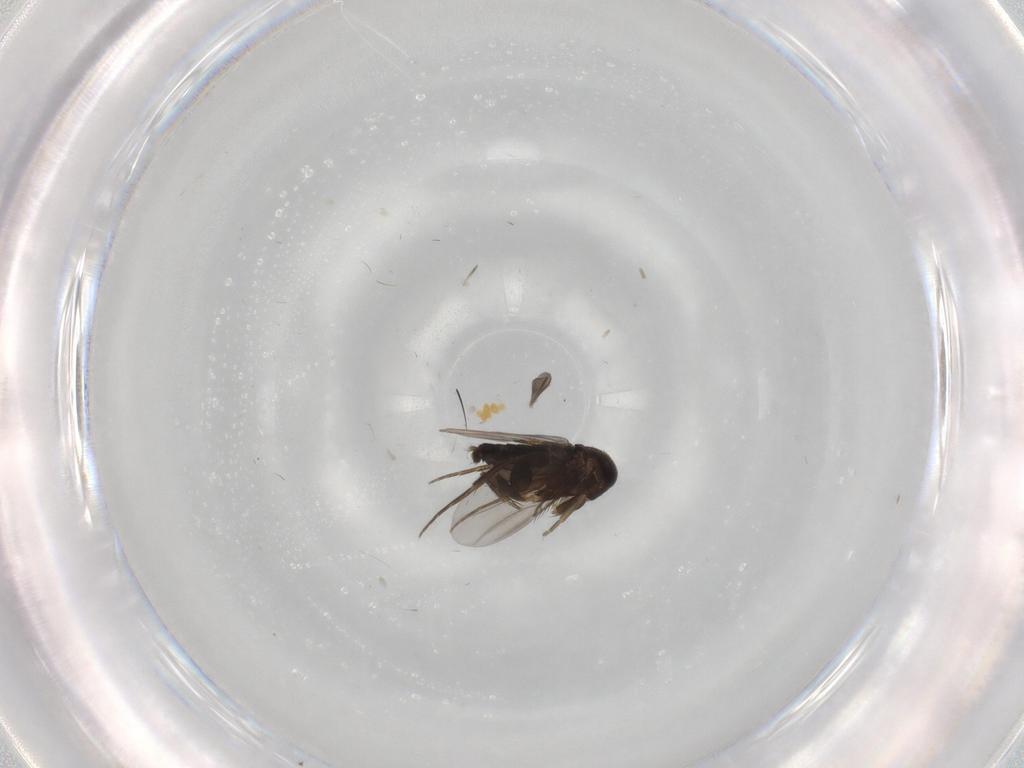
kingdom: Animalia
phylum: Arthropoda
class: Insecta
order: Diptera
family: Phoridae
